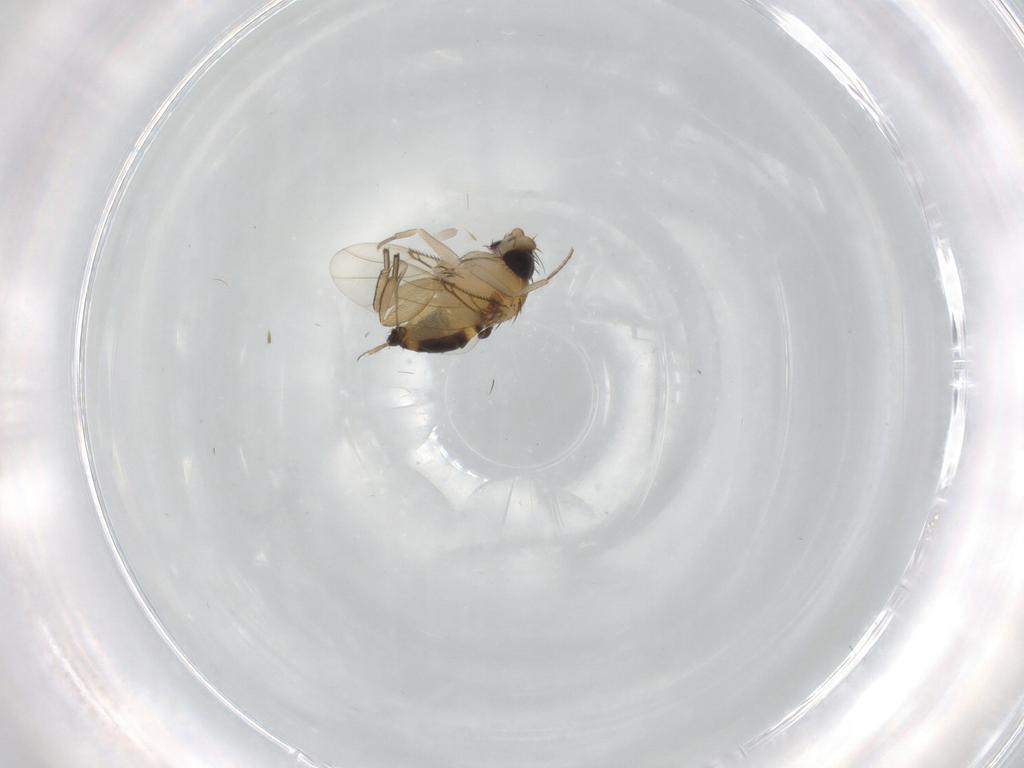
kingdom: Animalia
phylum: Arthropoda
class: Insecta
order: Diptera
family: Phoridae
